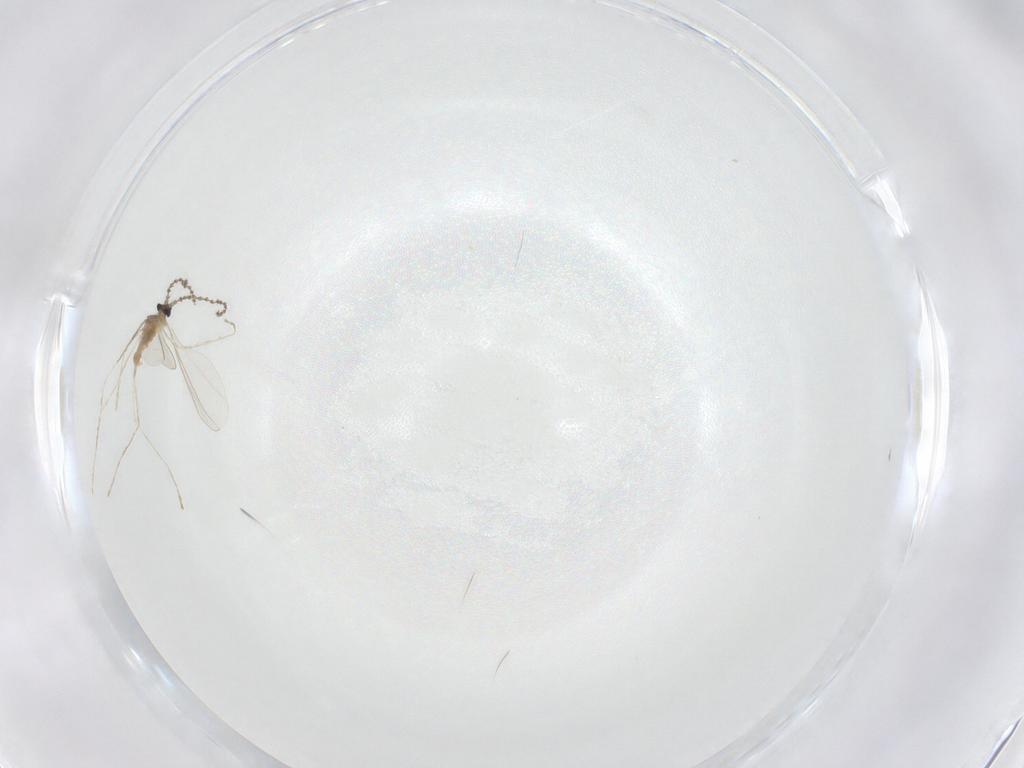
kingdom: Animalia
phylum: Arthropoda
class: Insecta
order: Diptera
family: Cecidomyiidae
